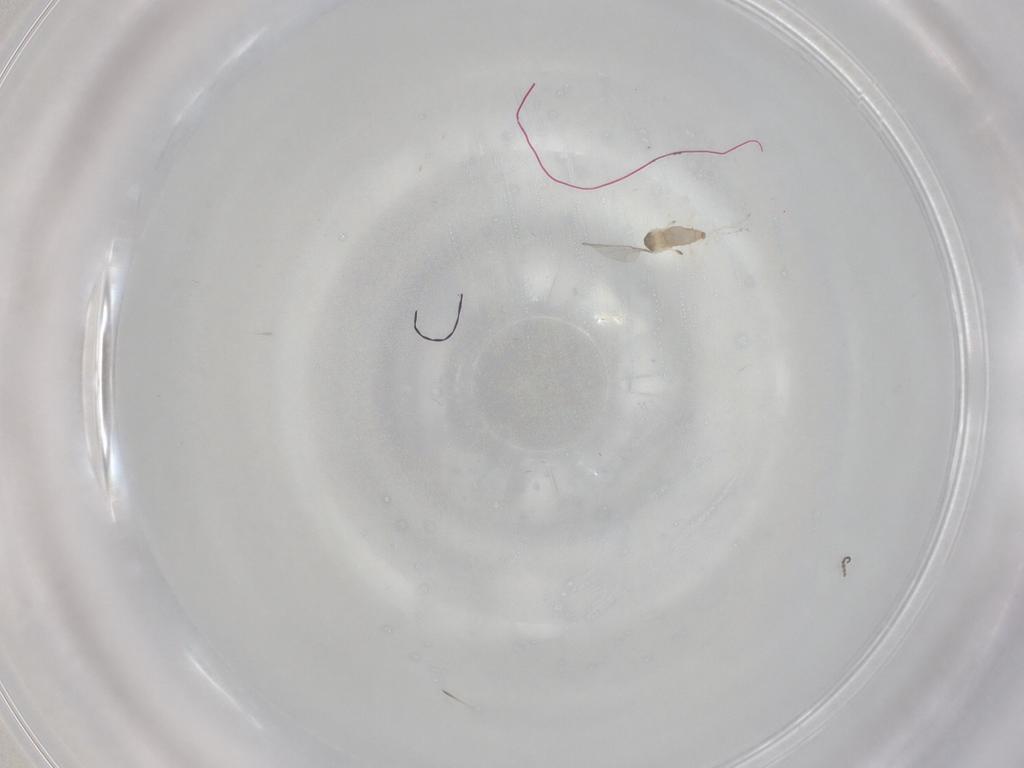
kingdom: Animalia
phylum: Arthropoda
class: Insecta
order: Diptera
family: Cecidomyiidae
